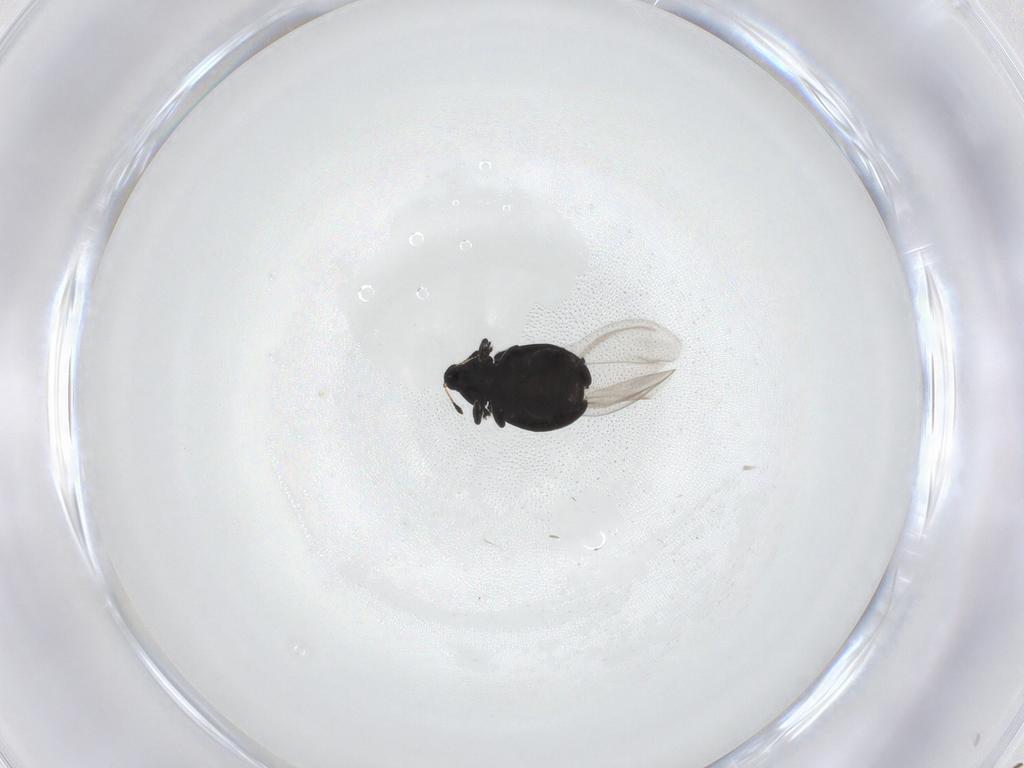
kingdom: Animalia
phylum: Arthropoda
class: Insecta
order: Coleoptera
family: Curculionidae
